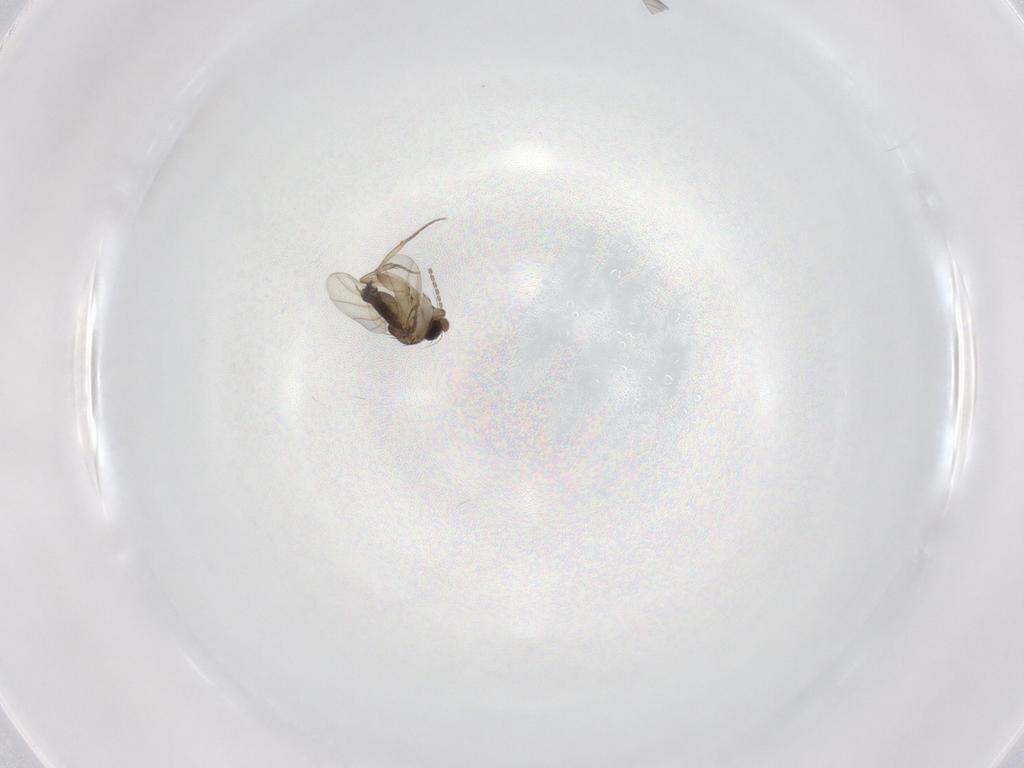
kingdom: Animalia
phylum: Arthropoda
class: Insecta
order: Diptera
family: Phoridae
